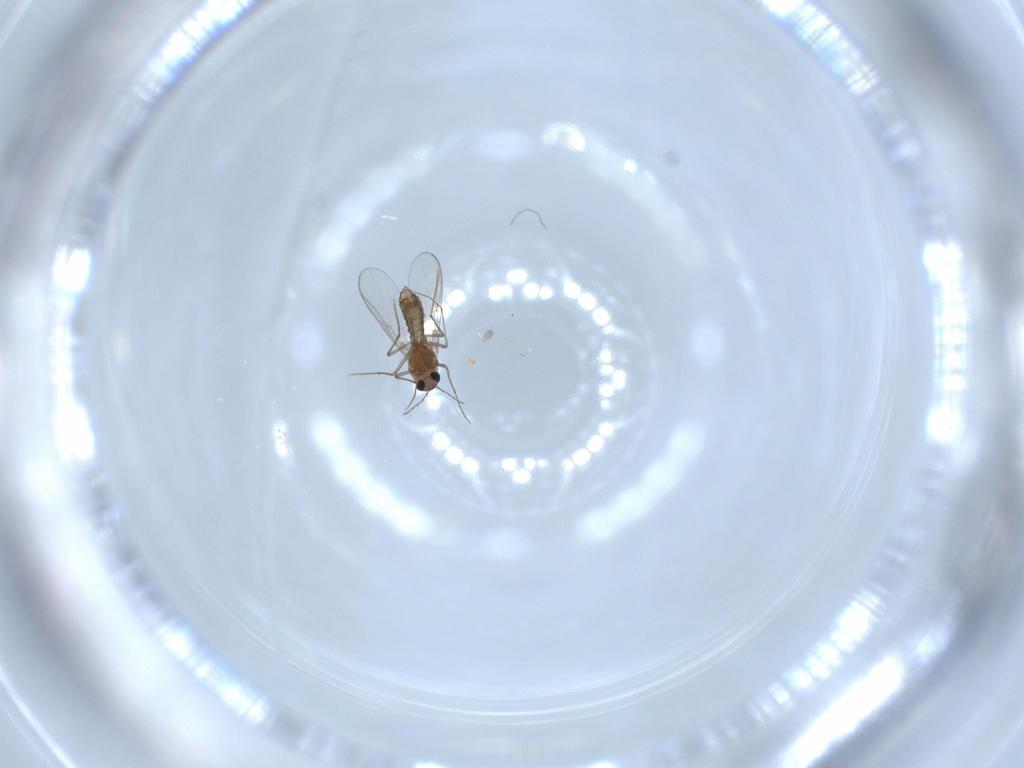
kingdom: Animalia
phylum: Arthropoda
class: Insecta
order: Diptera
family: Chironomidae
